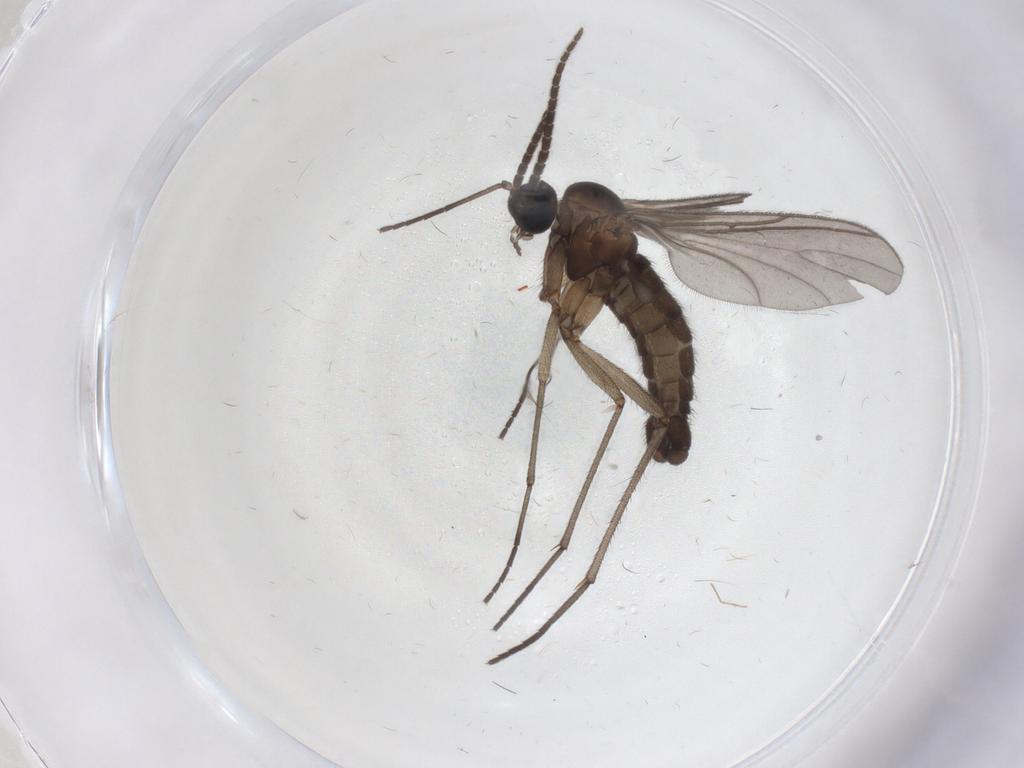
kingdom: Animalia
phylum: Arthropoda
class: Insecta
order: Diptera
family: Sciaridae
